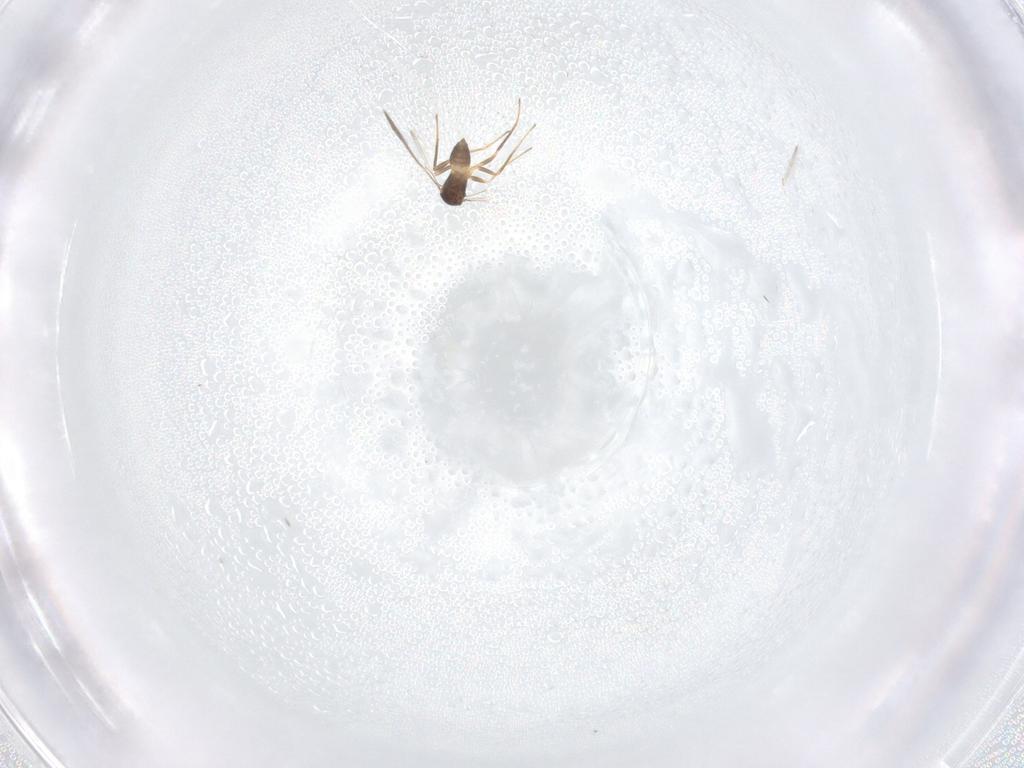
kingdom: Animalia
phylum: Arthropoda
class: Insecta
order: Hymenoptera
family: Mymaridae
